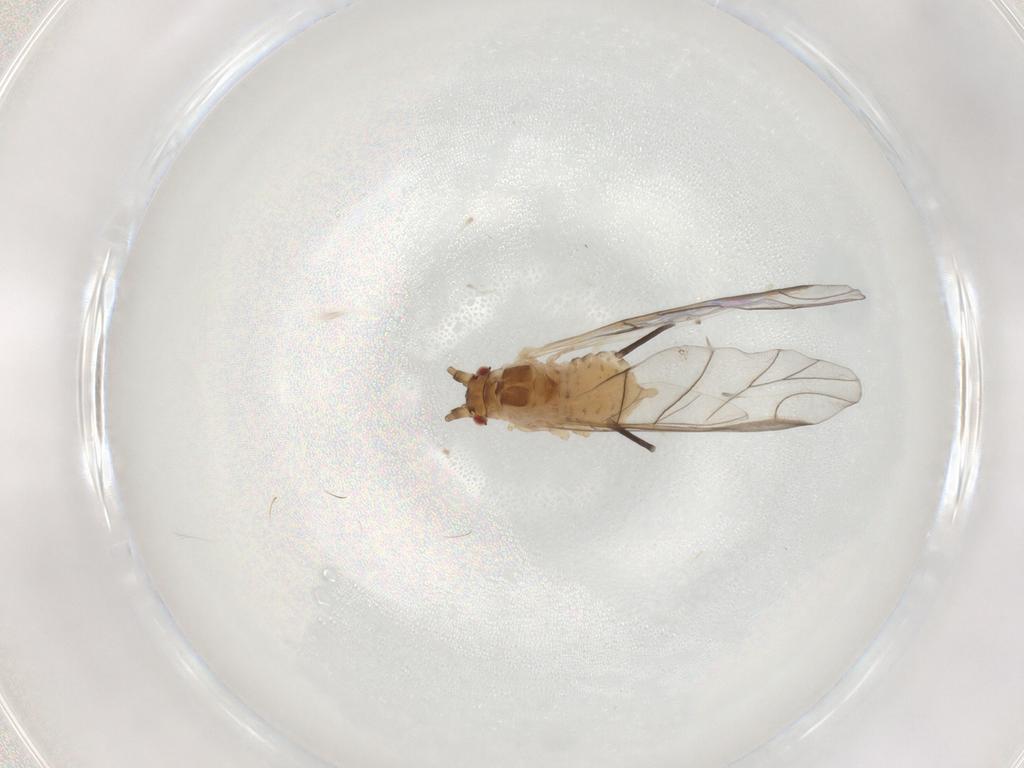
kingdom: Animalia
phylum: Arthropoda
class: Insecta
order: Hemiptera
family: Aphididae
